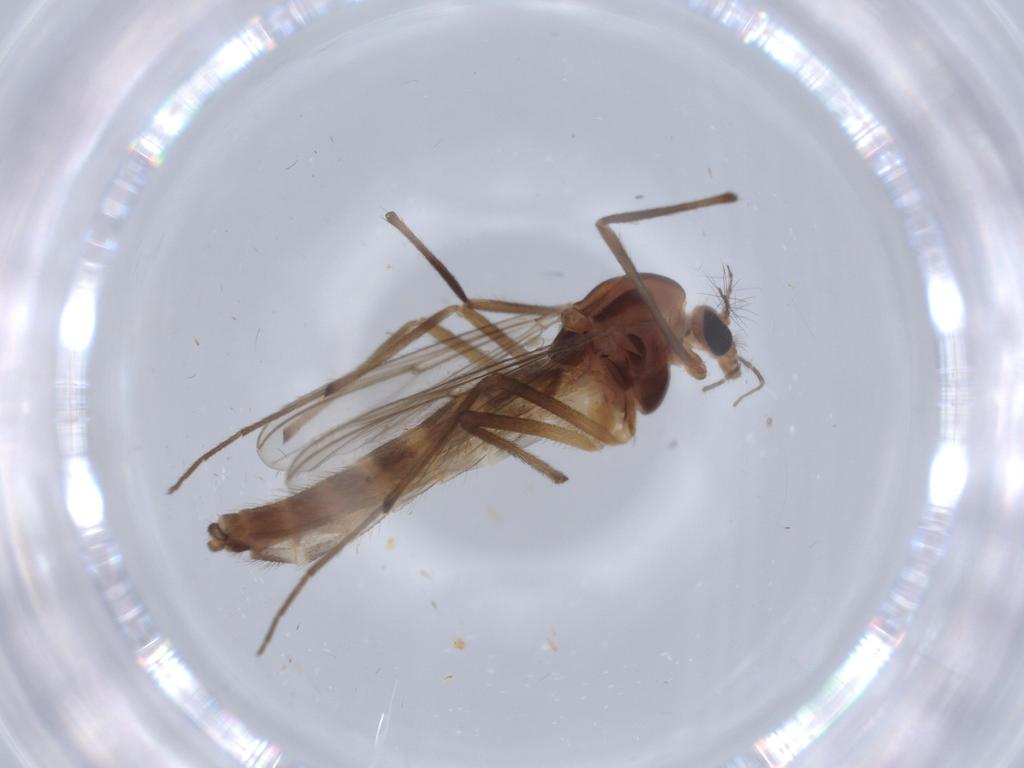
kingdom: Animalia
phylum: Arthropoda
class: Insecta
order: Diptera
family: Chironomidae
